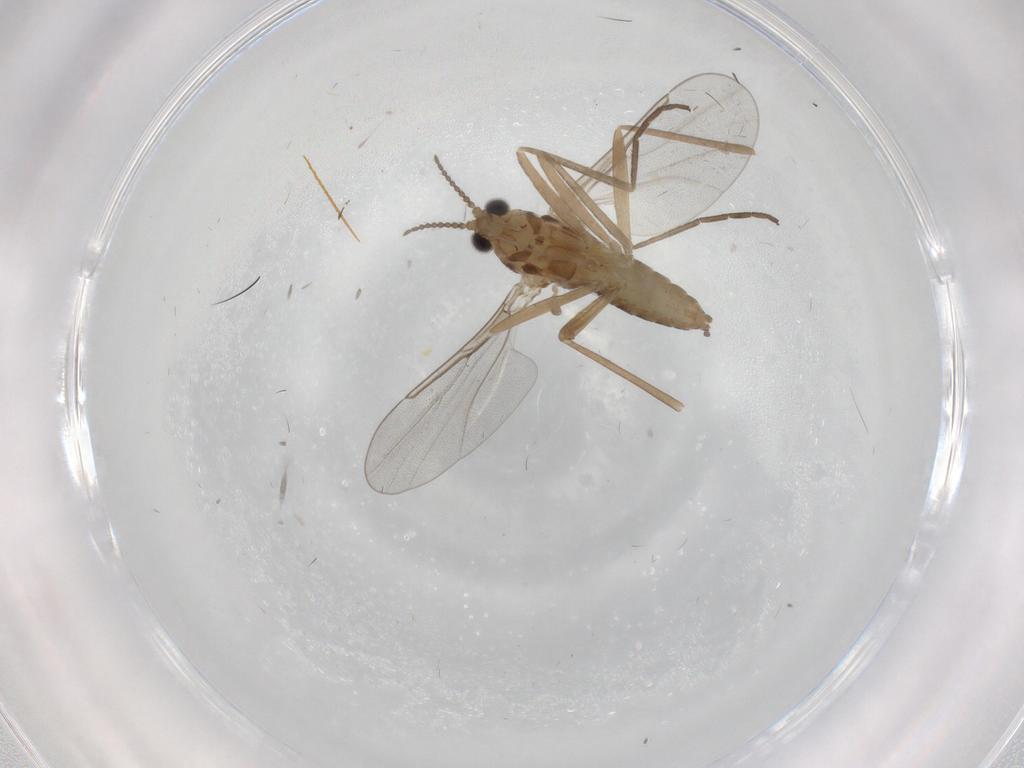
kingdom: Animalia
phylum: Arthropoda
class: Insecta
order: Diptera
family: Cecidomyiidae
